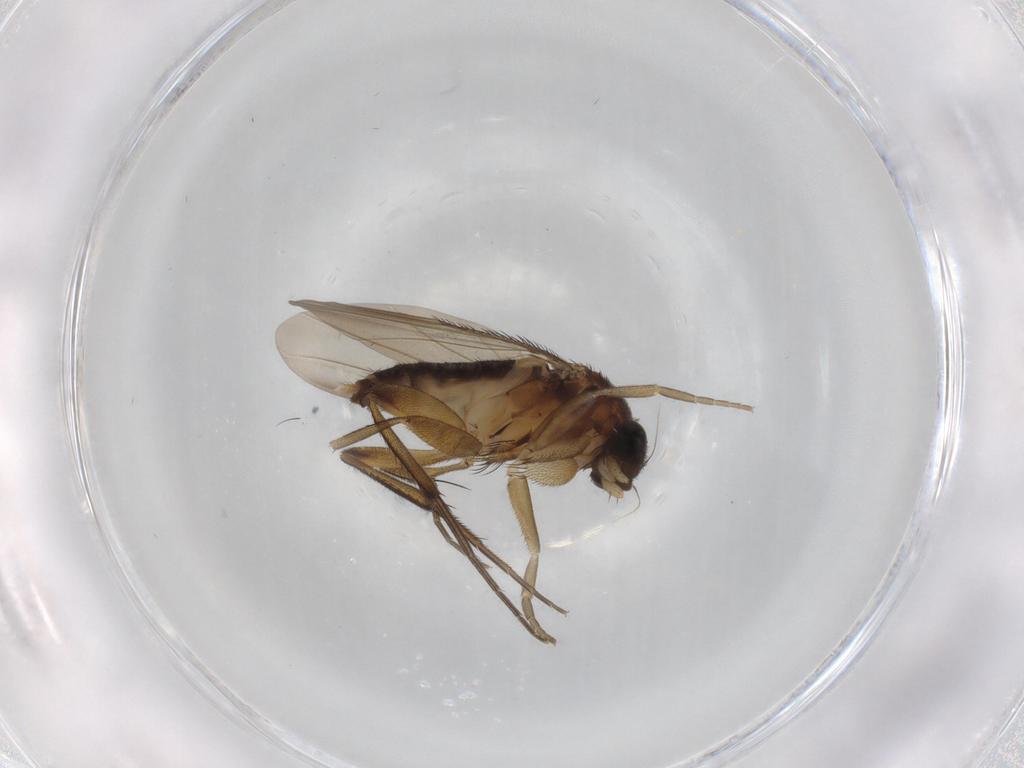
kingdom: Animalia
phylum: Arthropoda
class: Insecta
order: Diptera
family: Phoridae
